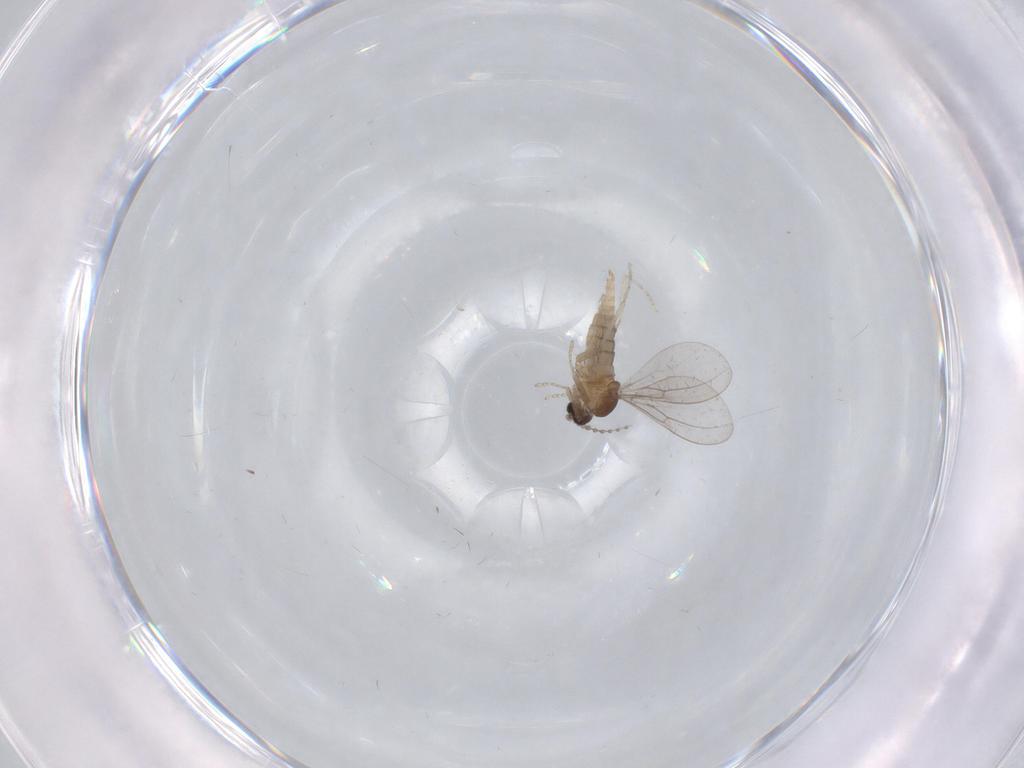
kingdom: Animalia
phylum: Arthropoda
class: Insecta
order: Diptera
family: Cecidomyiidae
